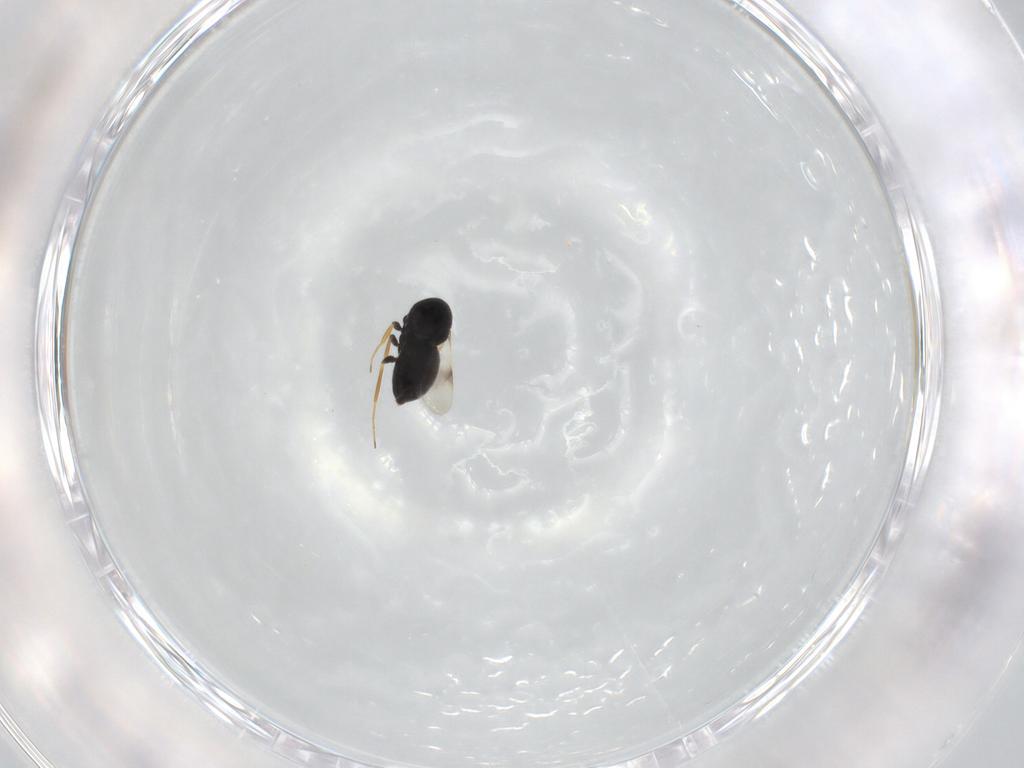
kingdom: Animalia
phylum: Arthropoda
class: Insecta
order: Hymenoptera
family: Scelionidae
